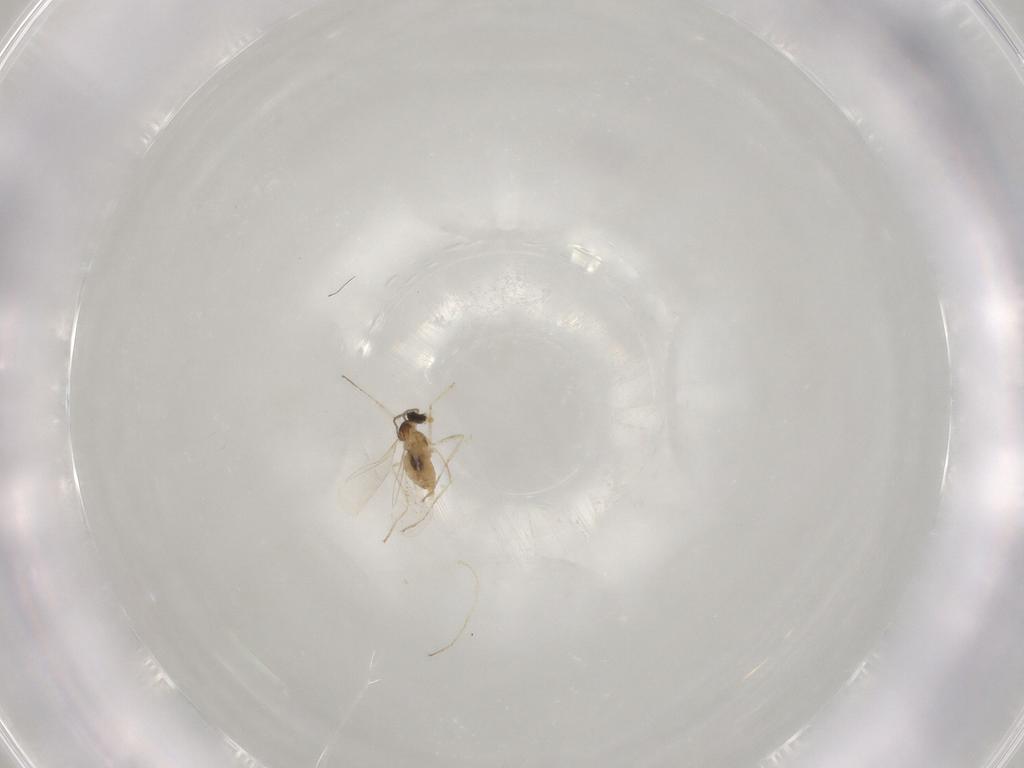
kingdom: Animalia
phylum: Arthropoda
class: Insecta
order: Diptera
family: Cecidomyiidae
